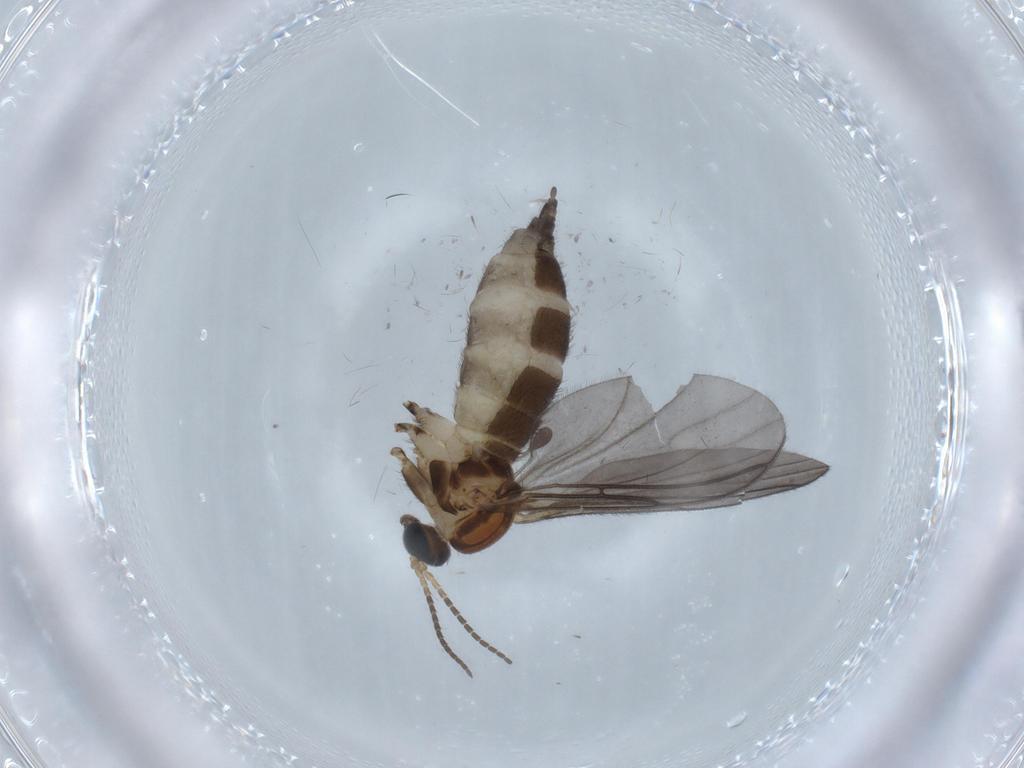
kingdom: Animalia
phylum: Arthropoda
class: Insecta
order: Diptera
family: Sciaridae
